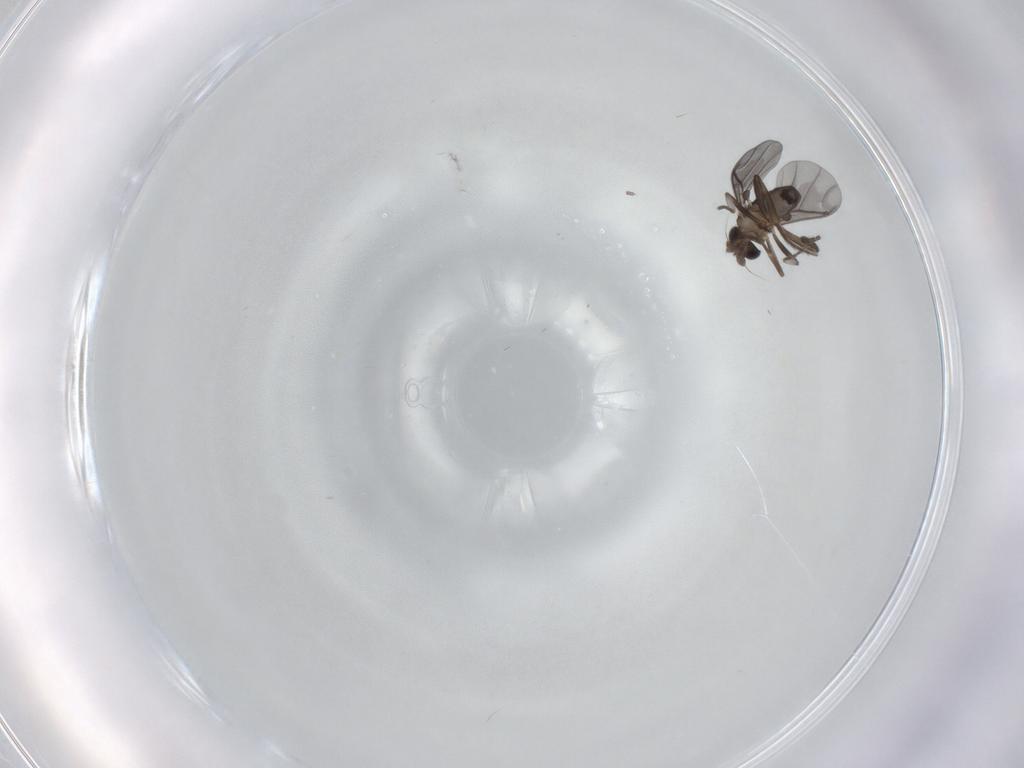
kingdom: Animalia
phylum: Arthropoda
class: Insecta
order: Diptera
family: Phoridae
